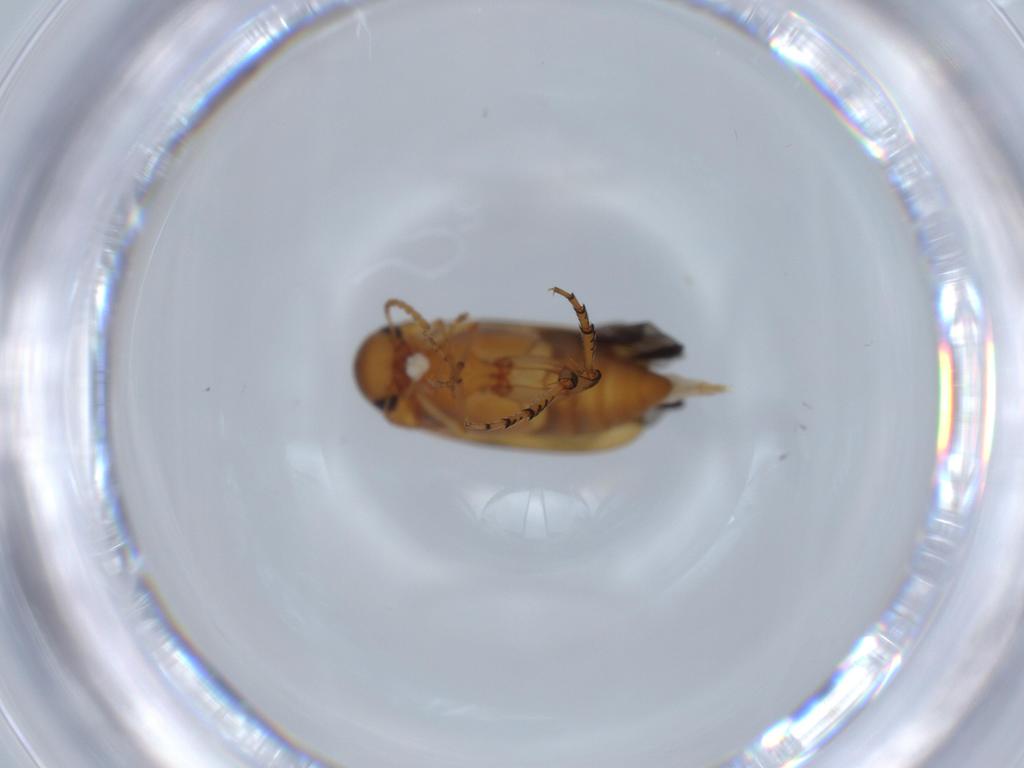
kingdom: Animalia
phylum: Arthropoda
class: Insecta
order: Coleoptera
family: Mordellidae
